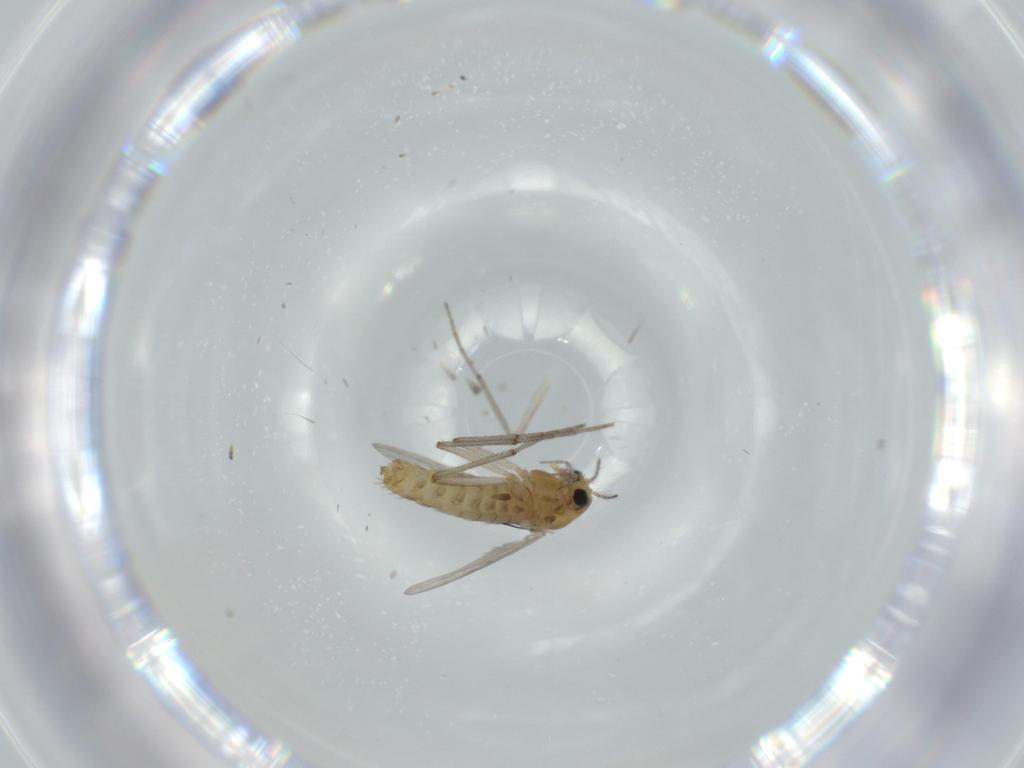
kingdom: Animalia
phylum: Arthropoda
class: Insecta
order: Diptera
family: Chironomidae
